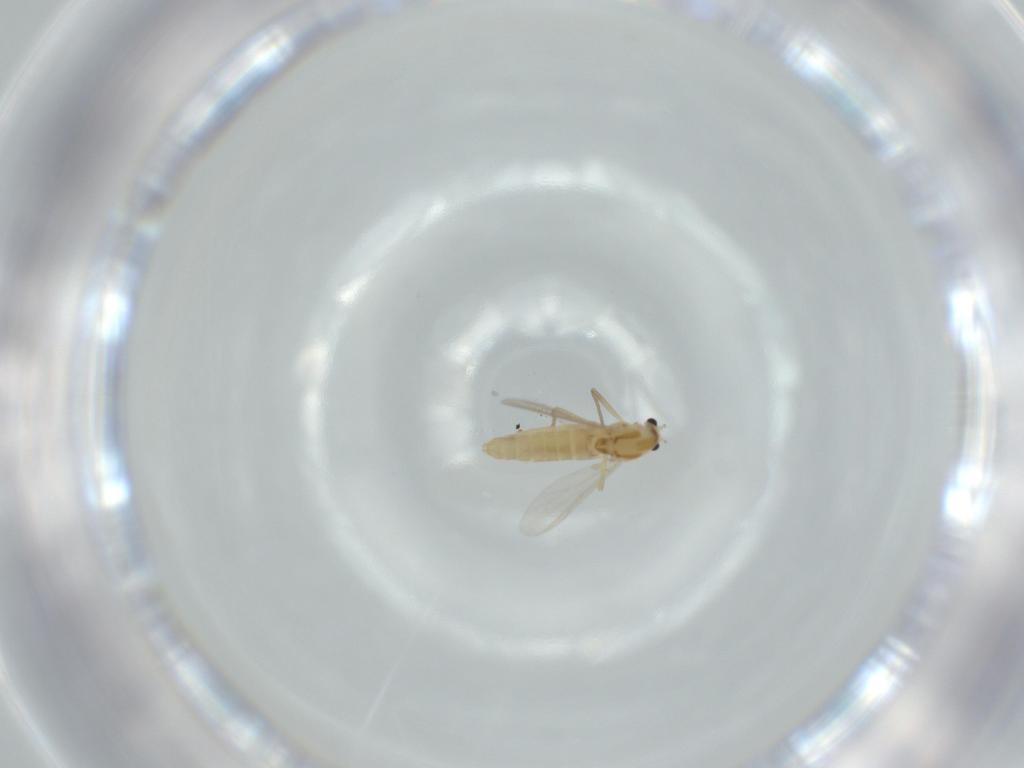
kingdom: Animalia
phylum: Arthropoda
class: Insecta
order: Diptera
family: Chironomidae
